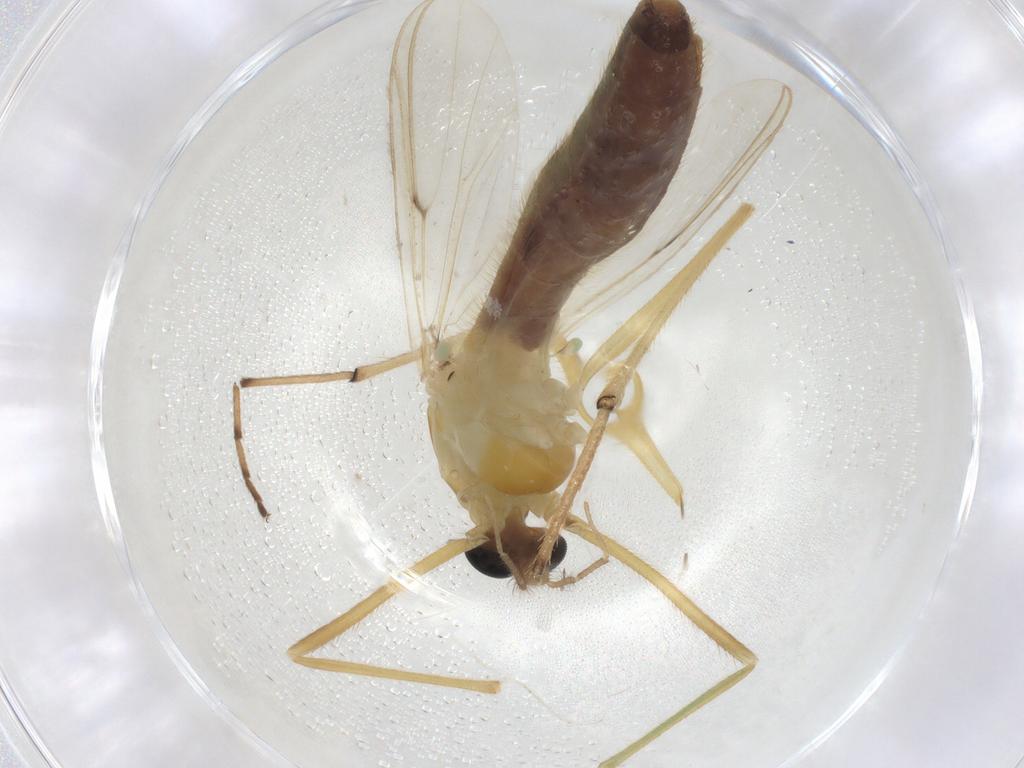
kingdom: Animalia
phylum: Arthropoda
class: Insecta
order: Diptera
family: Chironomidae
